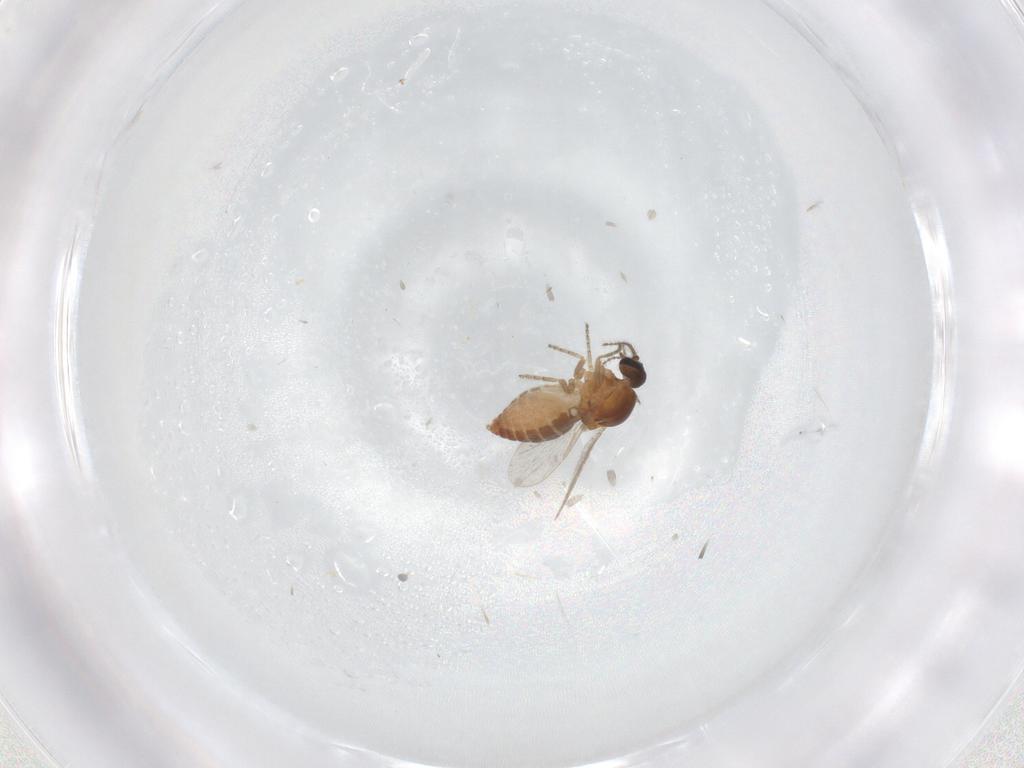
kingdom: Animalia
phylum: Arthropoda
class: Insecta
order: Diptera
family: Ceratopogonidae
